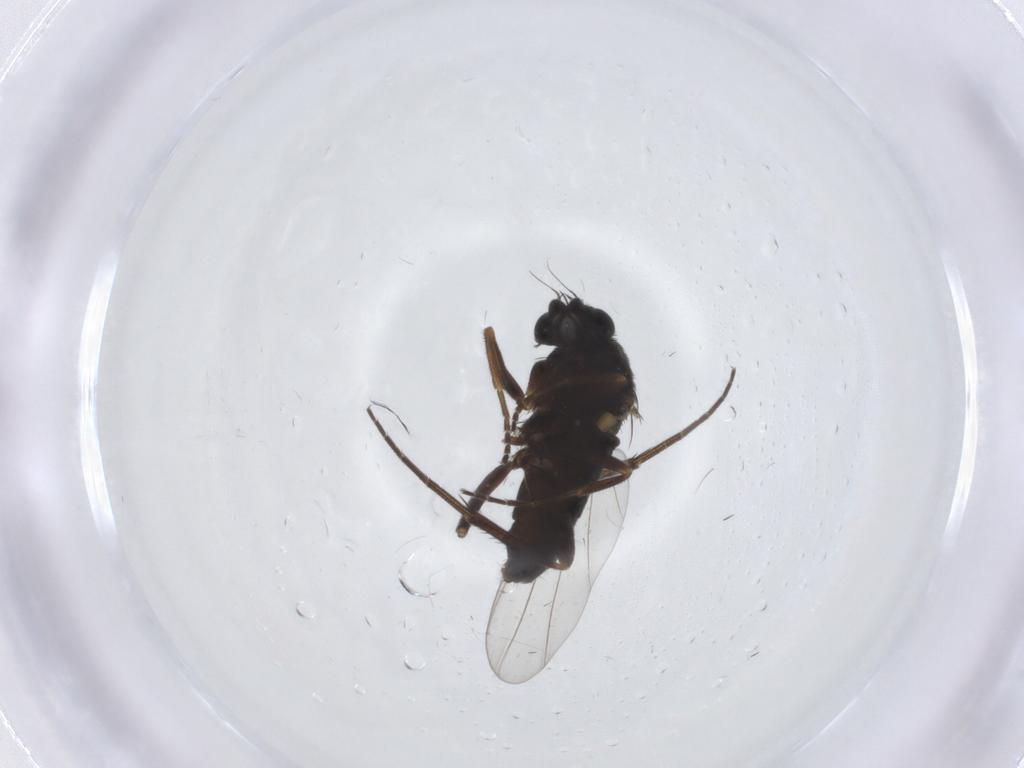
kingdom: Animalia
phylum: Arthropoda
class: Insecta
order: Diptera
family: Phoridae
